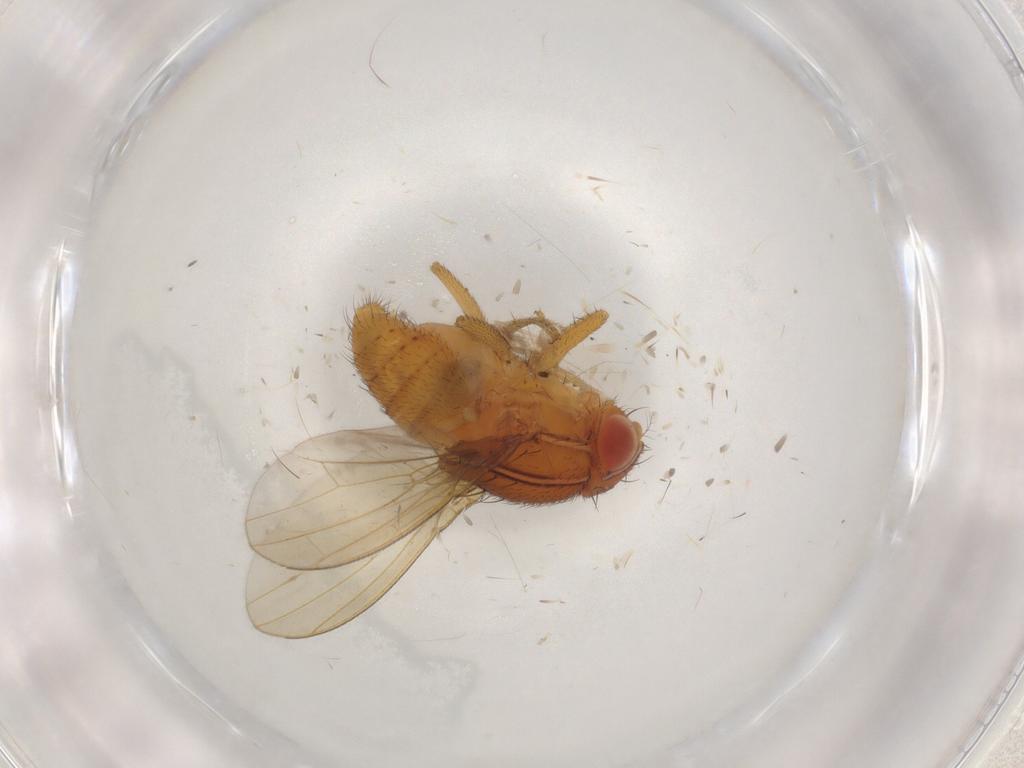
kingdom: Animalia
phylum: Arthropoda
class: Insecta
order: Diptera
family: Drosophilidae
